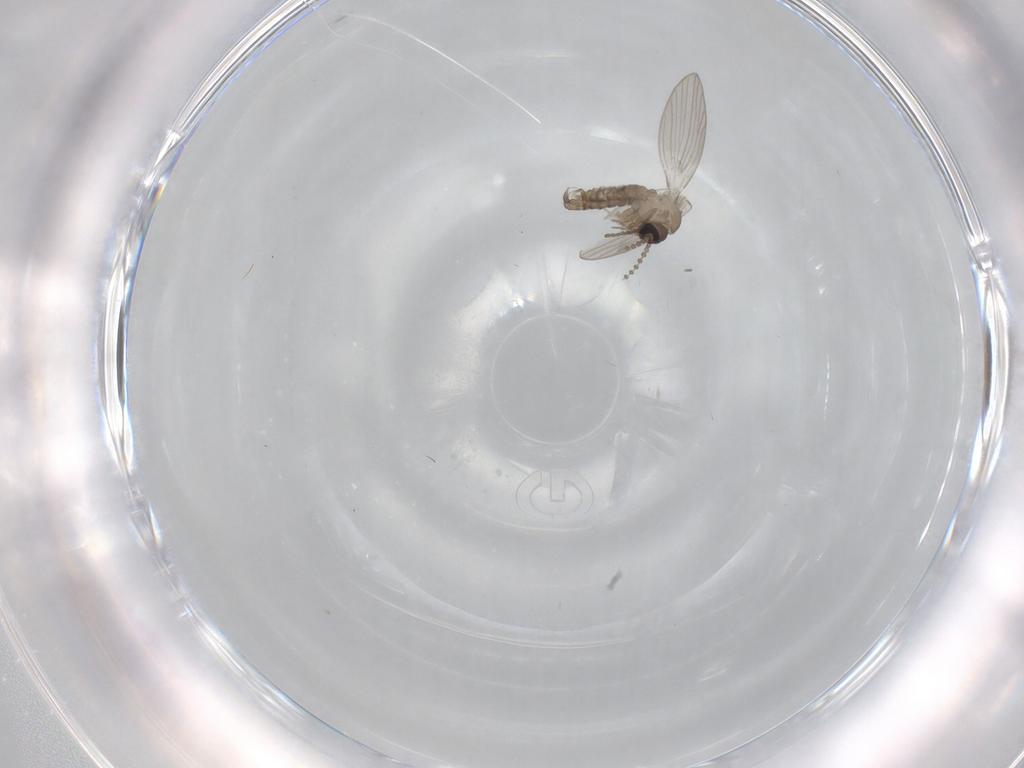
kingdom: Animalia
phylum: Arthropoda
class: Insecta
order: Diptera
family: Psychodidae
